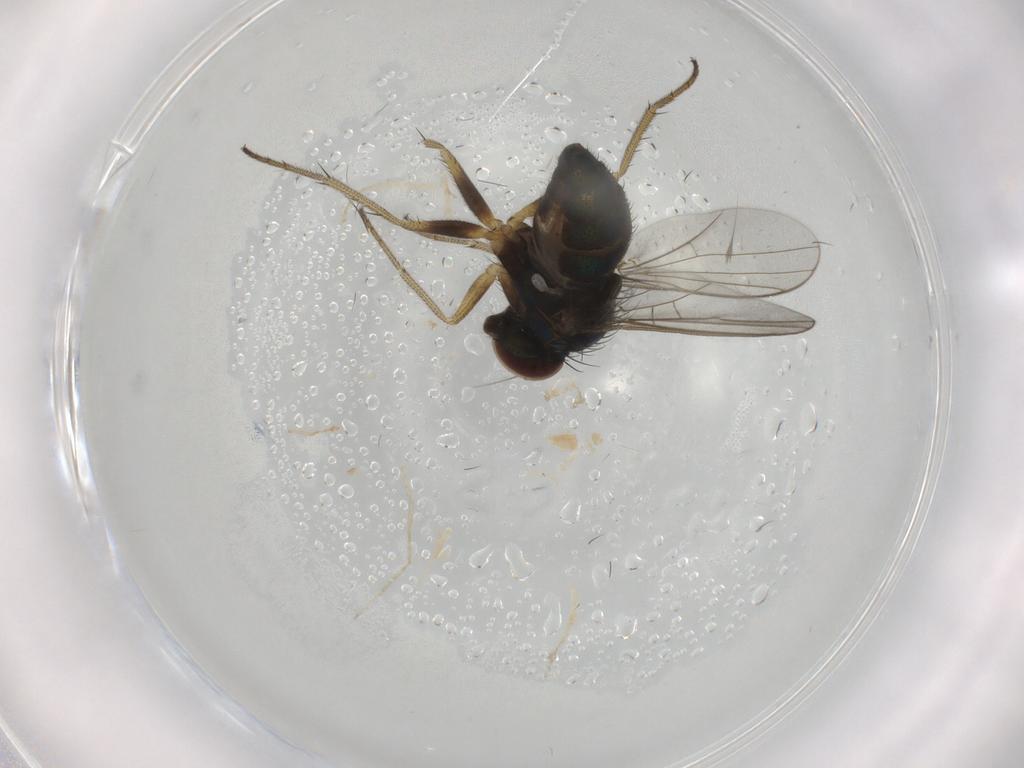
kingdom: Animalia
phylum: Arthropoda
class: Insecta
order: Diptera
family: Chironomidae
